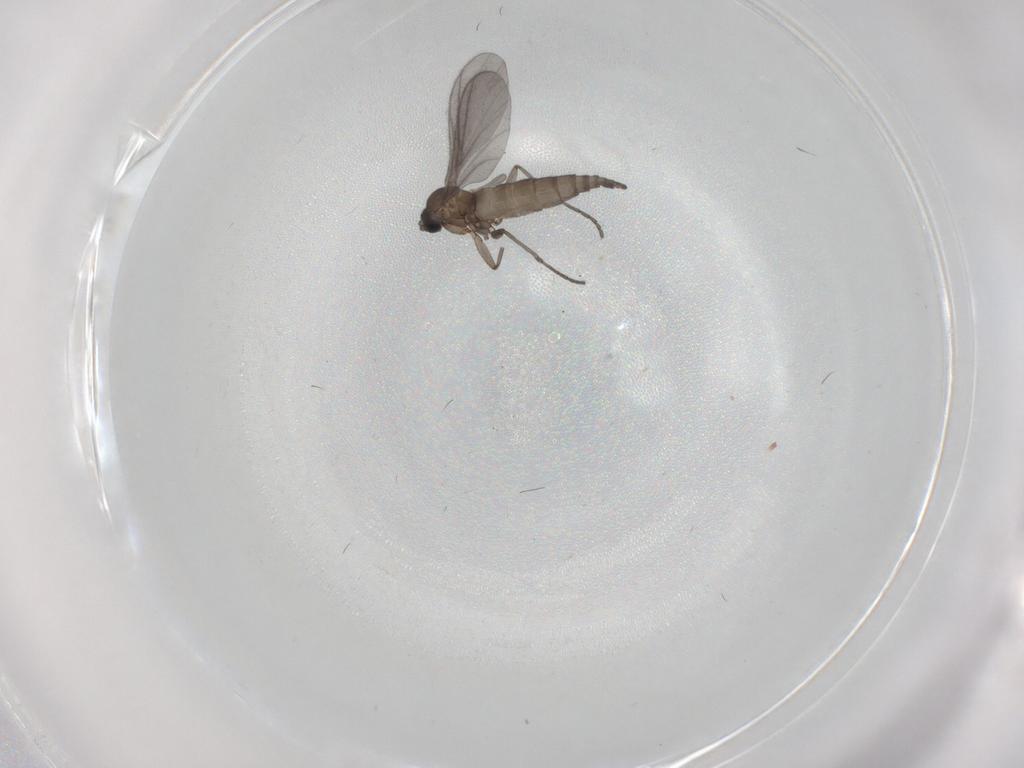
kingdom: Animalia
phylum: Arthropoda
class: Insecta
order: Diptera
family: Sciaridae
